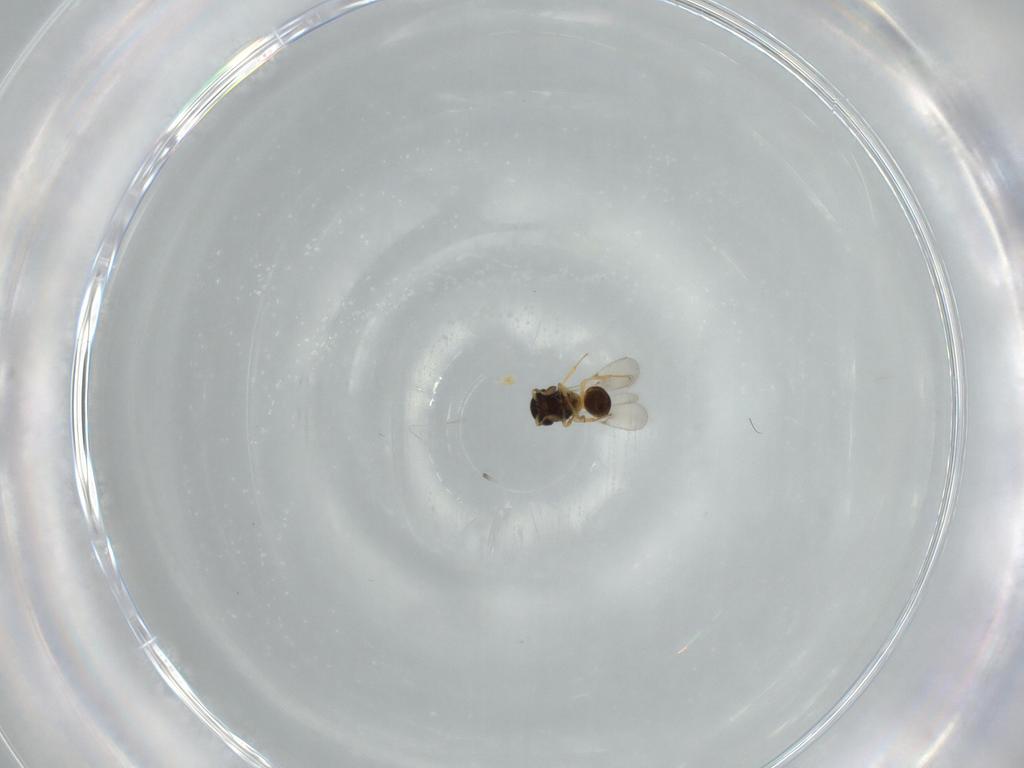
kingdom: Animalia
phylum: Arthropoda
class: Insecta
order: Hymenoptera
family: Scelionidae
